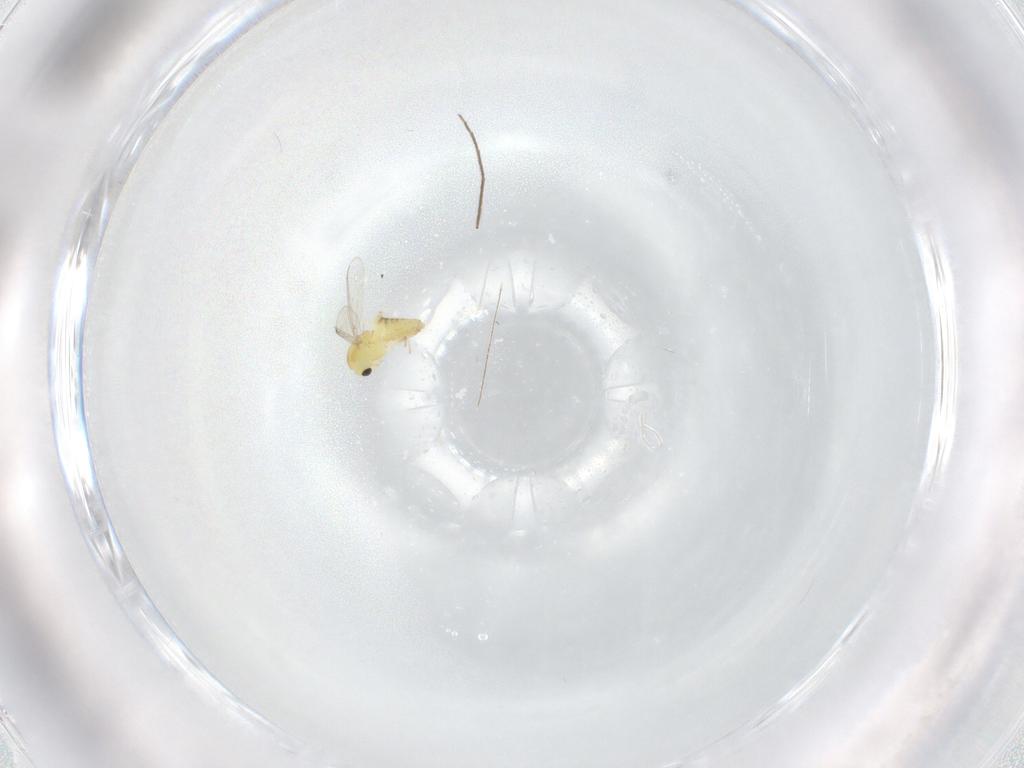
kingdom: Animalia
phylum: Arthropoda
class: Insecta
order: Diptera
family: Chironomidae
